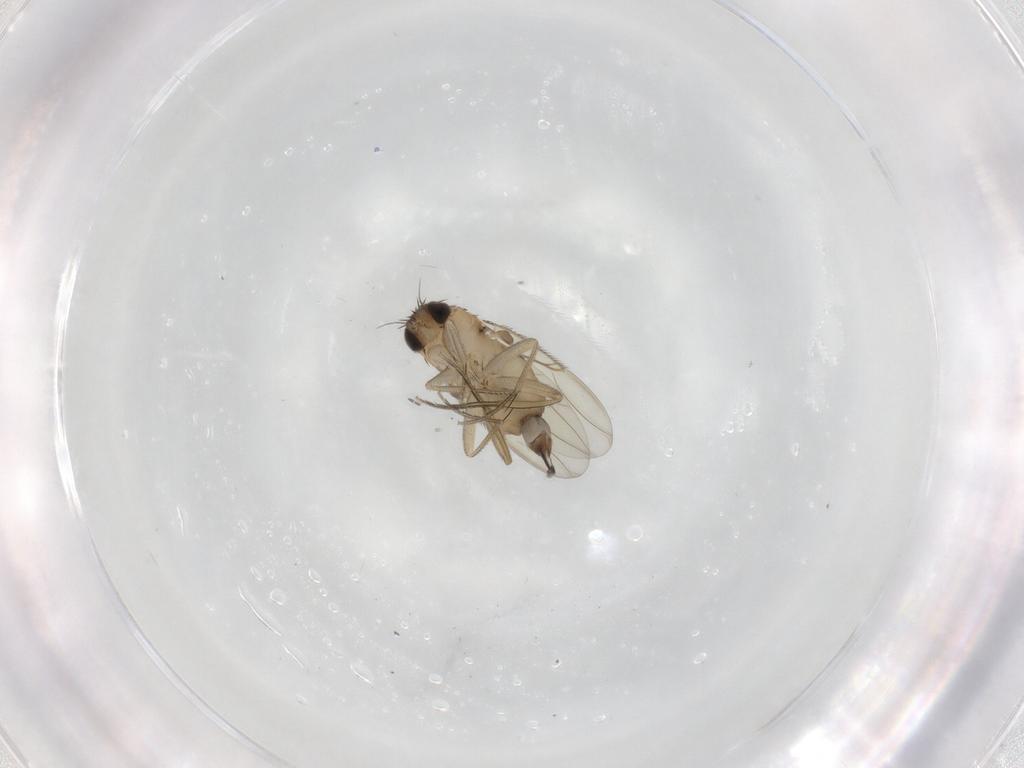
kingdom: Animalia
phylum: Arthropoda
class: Insecta
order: Diptera
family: Phoridae
